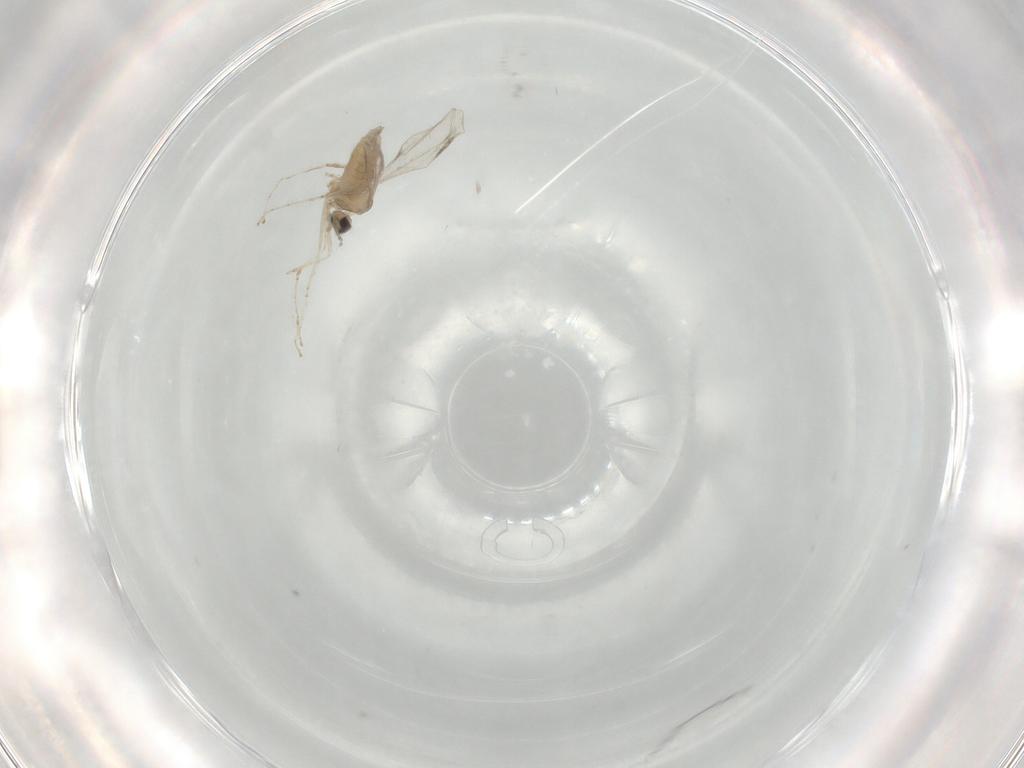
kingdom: Animalia
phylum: Arthropoda
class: Insecta
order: Diptera
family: Cecidomyiidae
